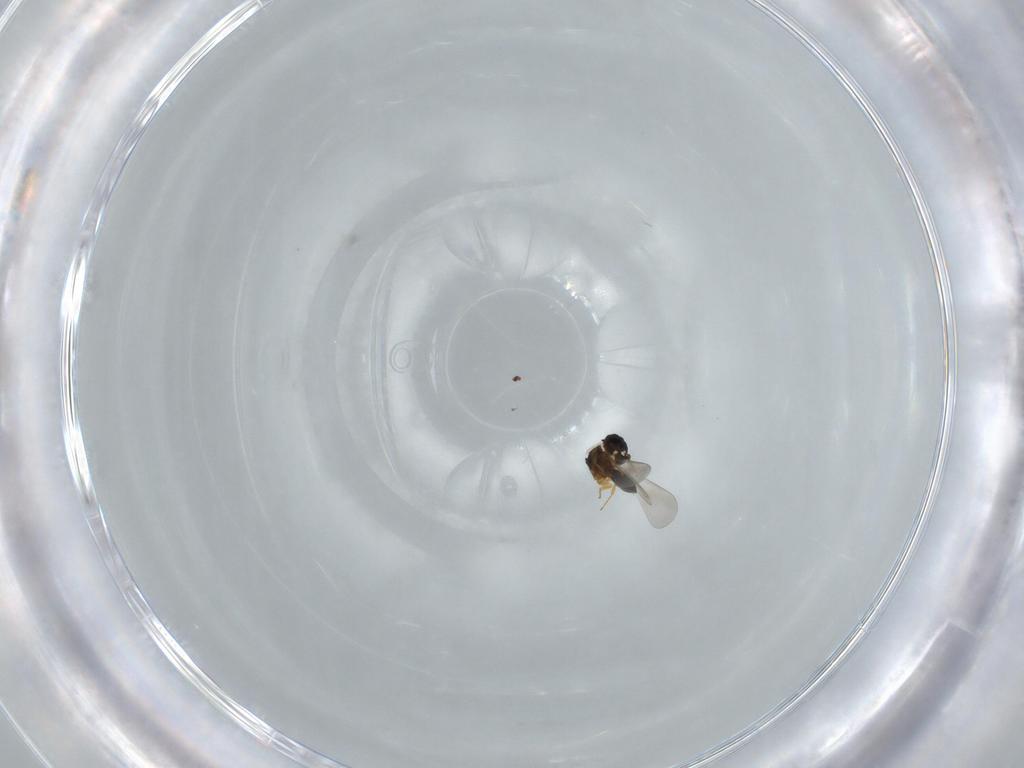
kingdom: Animalia
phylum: Arthropoda
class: Insecta
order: Hymenoptera
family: Platygastridae
